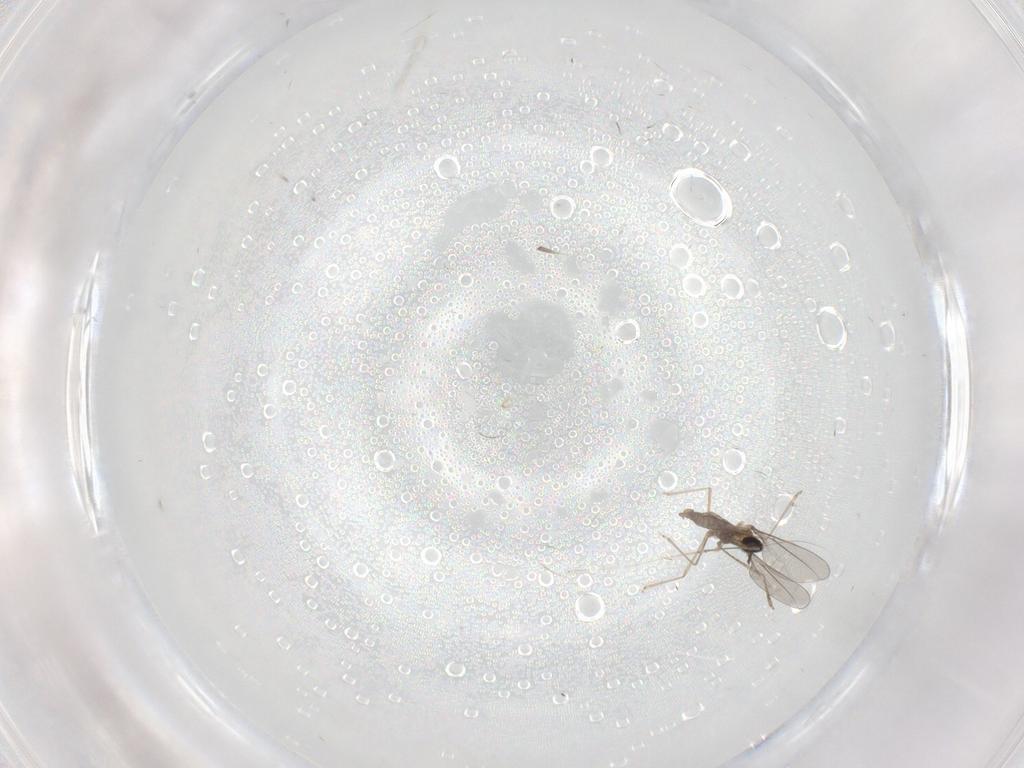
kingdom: Animalia
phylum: Arthropoda
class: Insecta
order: Diptera
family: Cecidomyiidae
